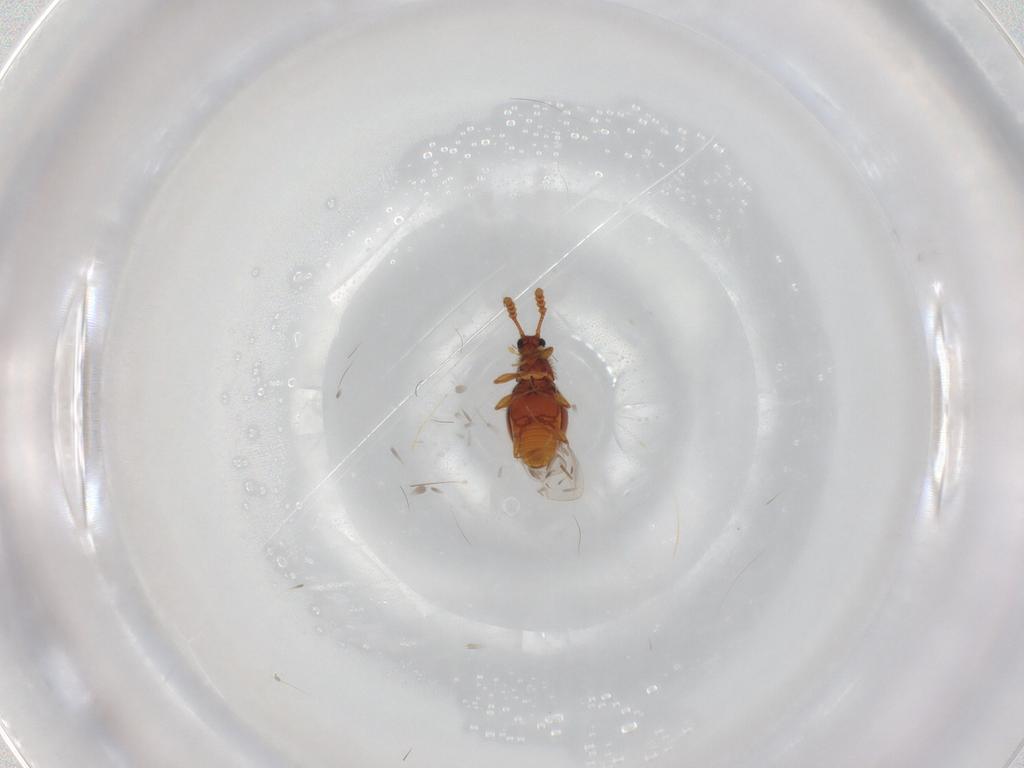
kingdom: Animalia
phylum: Arthropoda
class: Insecta
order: Coleoptera
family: Staphylinidae
